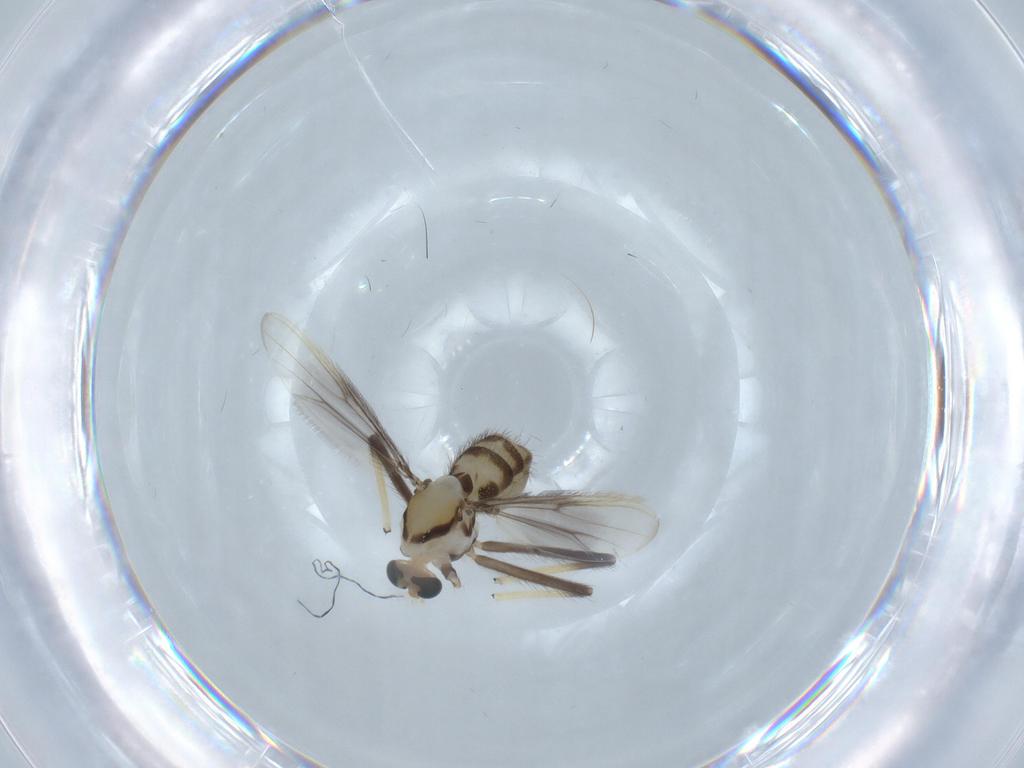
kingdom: Animalia
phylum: Arthropoda
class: Insecta
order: Diptera
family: Chironomidae
